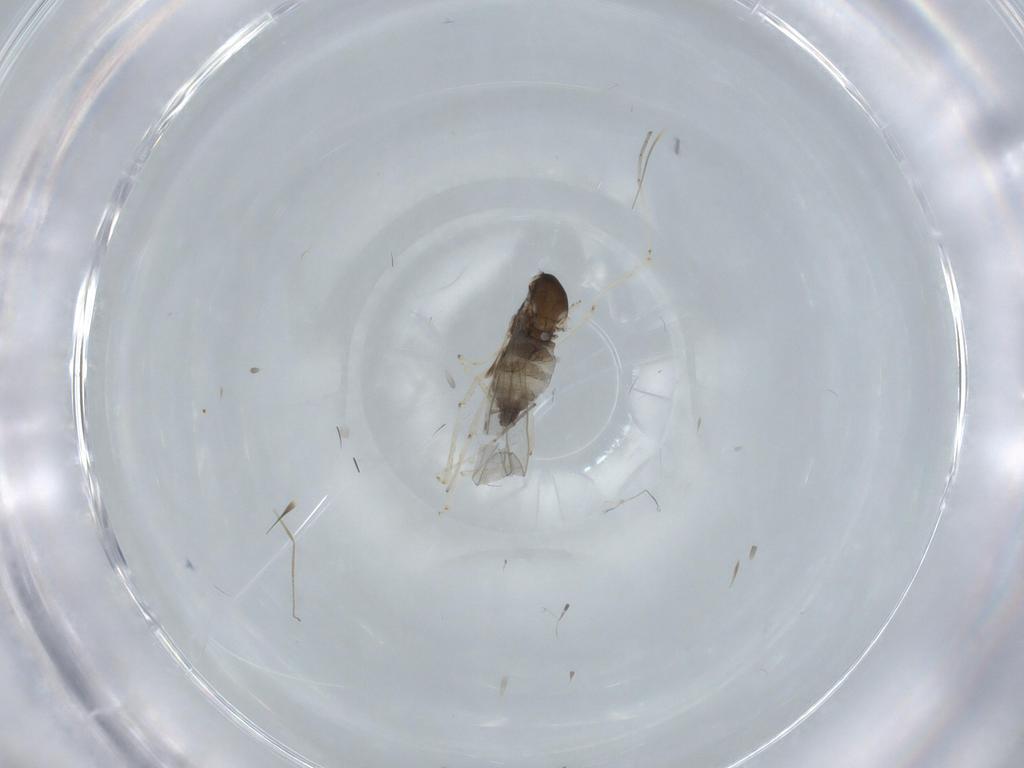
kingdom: Animalia
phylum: Arthropoda
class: Insecta
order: Diptera
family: Cecidomyiidae
